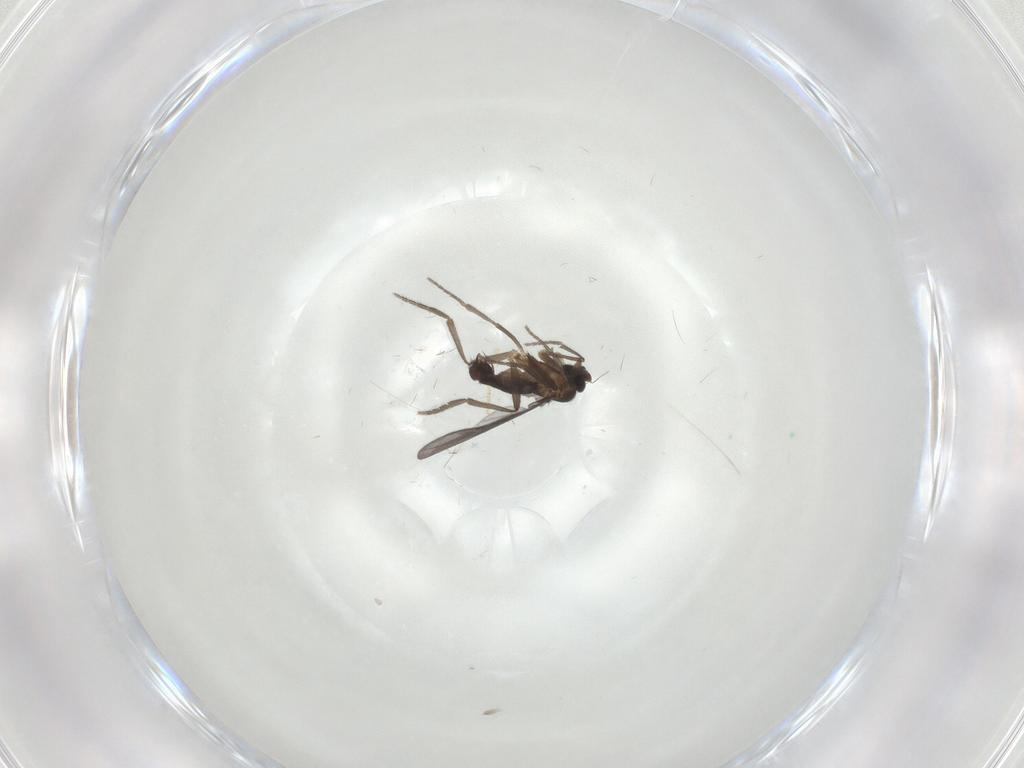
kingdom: Animalia
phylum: Arthropoda
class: Insecta
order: Diptera
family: Phoridae
